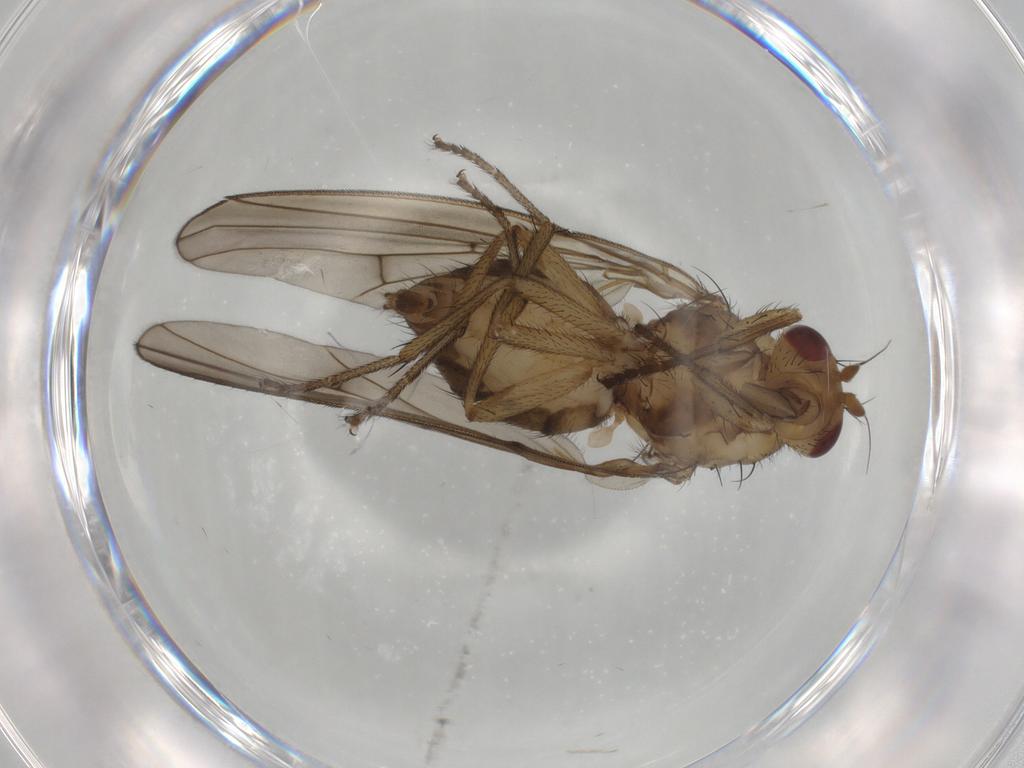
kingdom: Animalia
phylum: Arthropoda
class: Insecta
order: Diptera
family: Lauxaniidae
